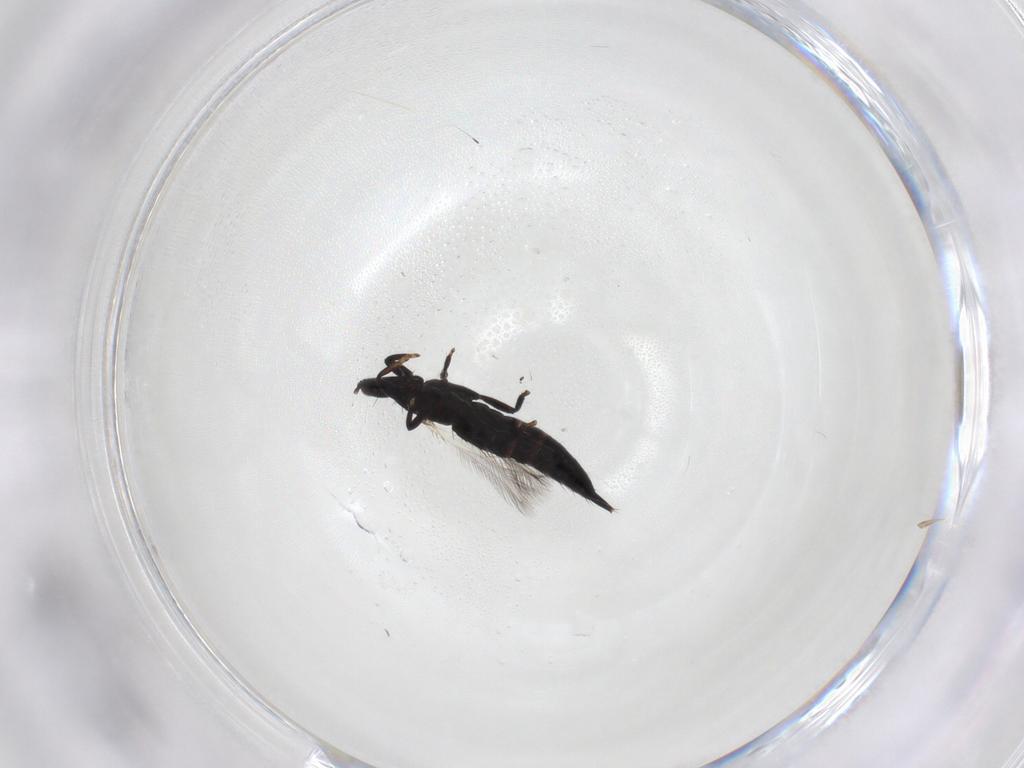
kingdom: Animalia
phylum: Arthropoda
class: Insecta
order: Thysanoptera
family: Phlaeothripidae
